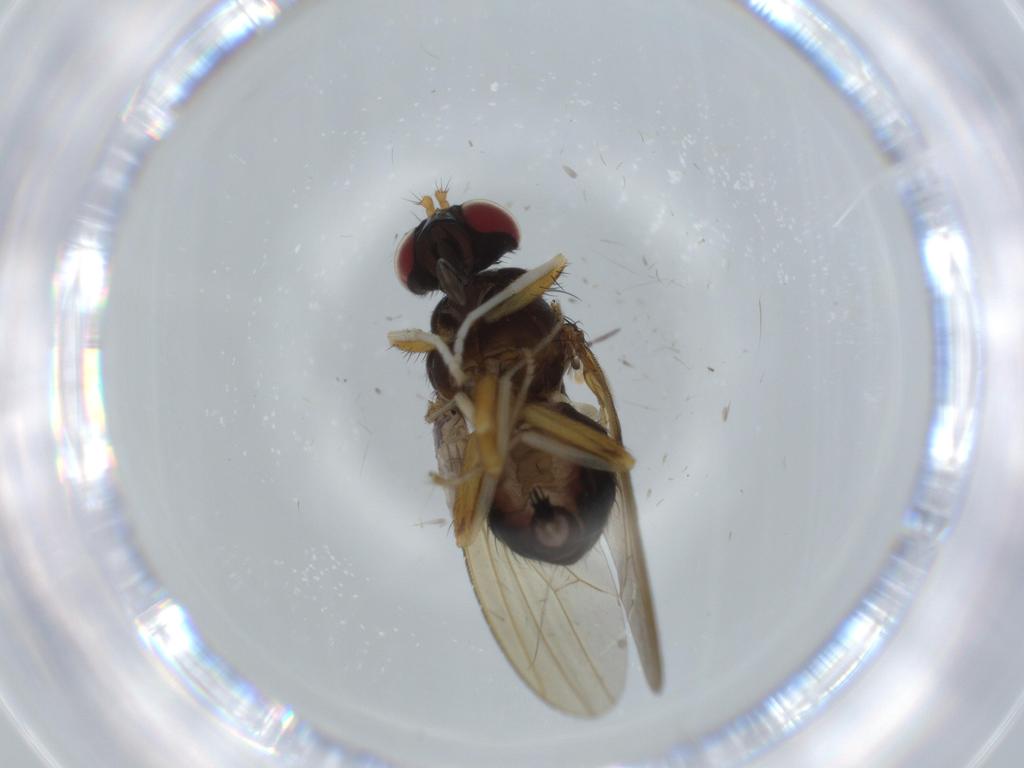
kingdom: Animalia
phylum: Arthropoda
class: Insecta
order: Diptera
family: Cecidomyiidae
